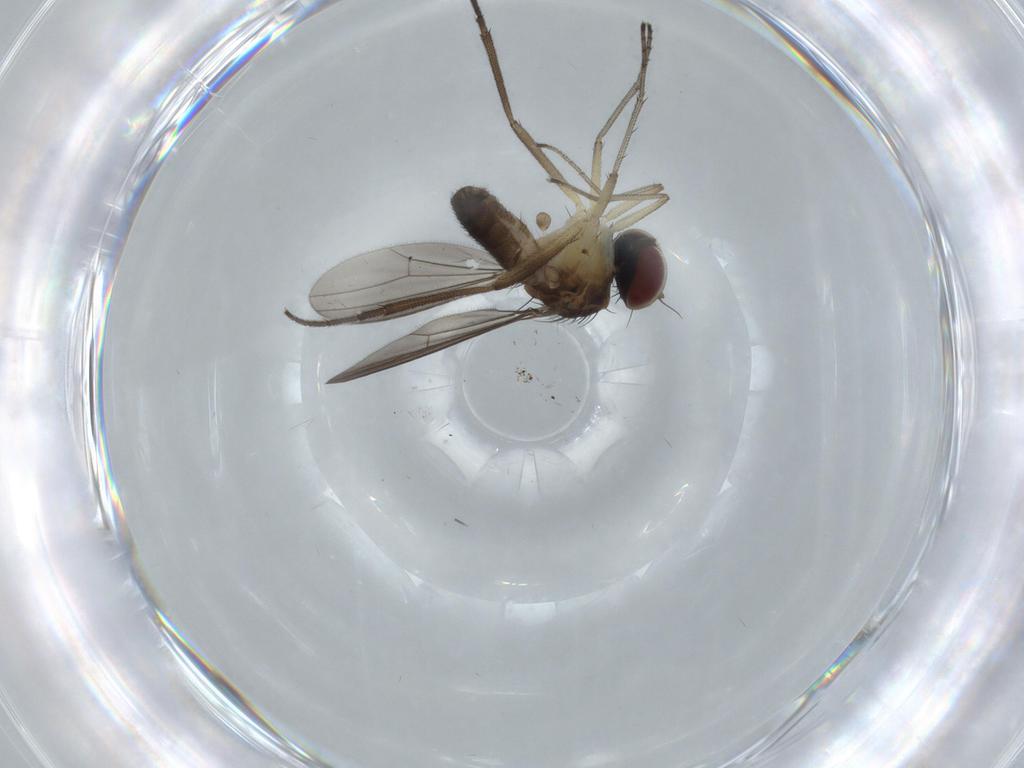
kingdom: Animalia
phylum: Arthropoda
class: Insecta
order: Diptera
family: Dolichopodidae
